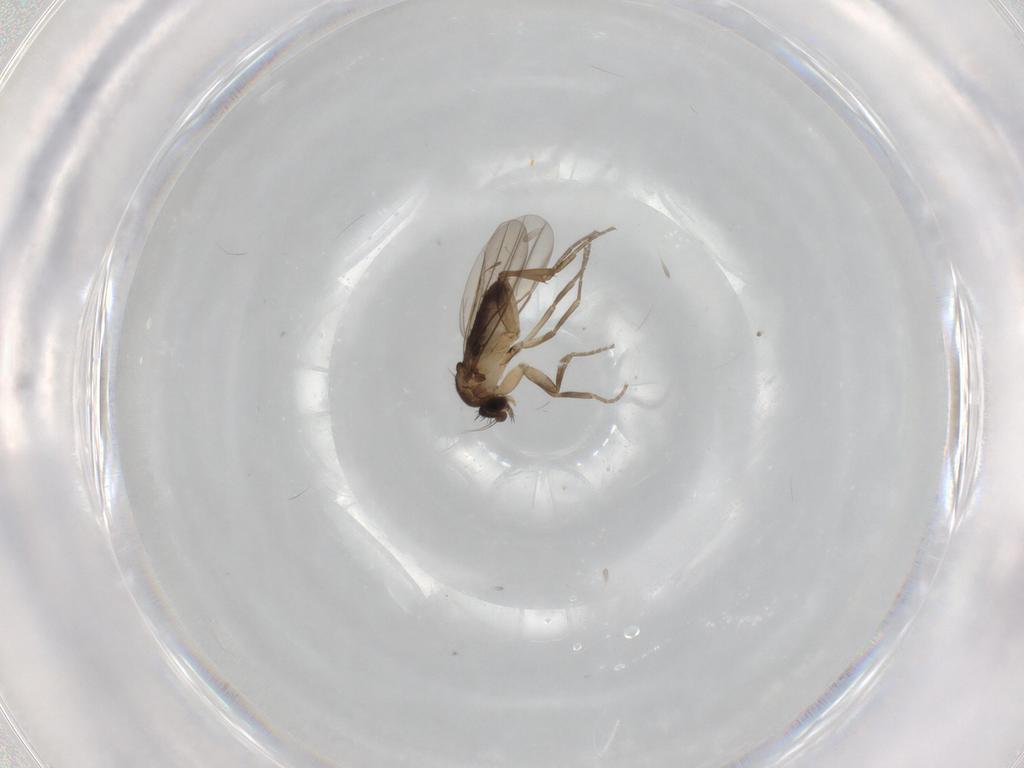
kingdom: Animalia
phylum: Arthropoda
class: Insecta
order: Diptera
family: Phoridae
